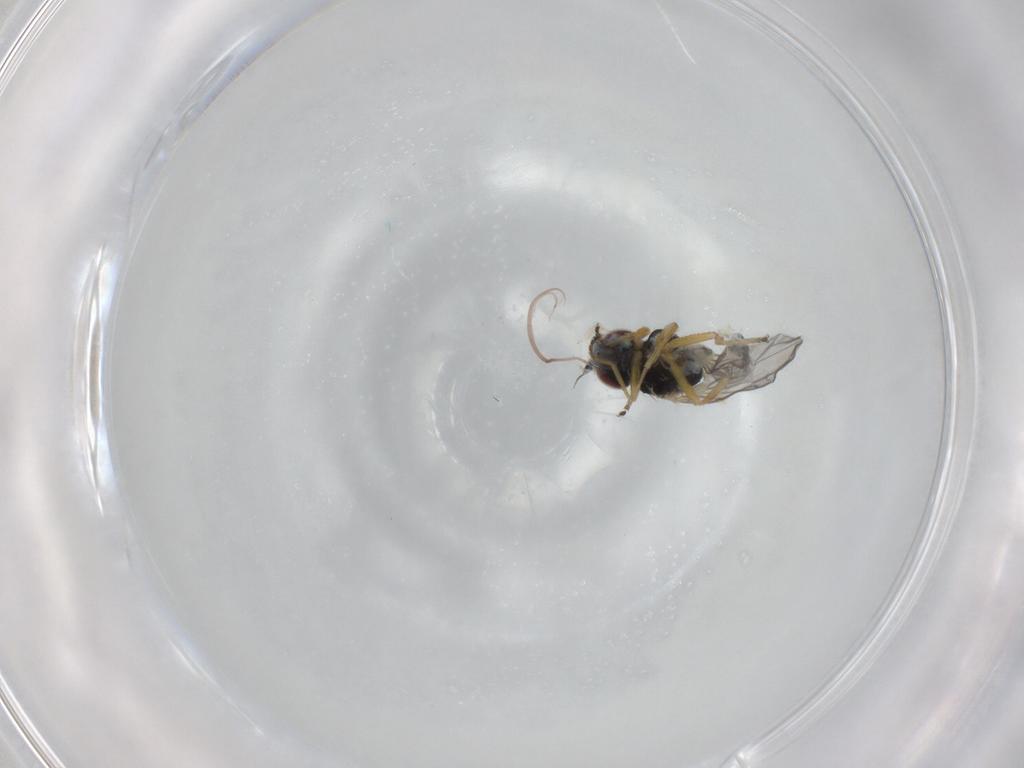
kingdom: Animalia
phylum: Arthropoda
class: Insecta
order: Diptera
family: Chloropidae
